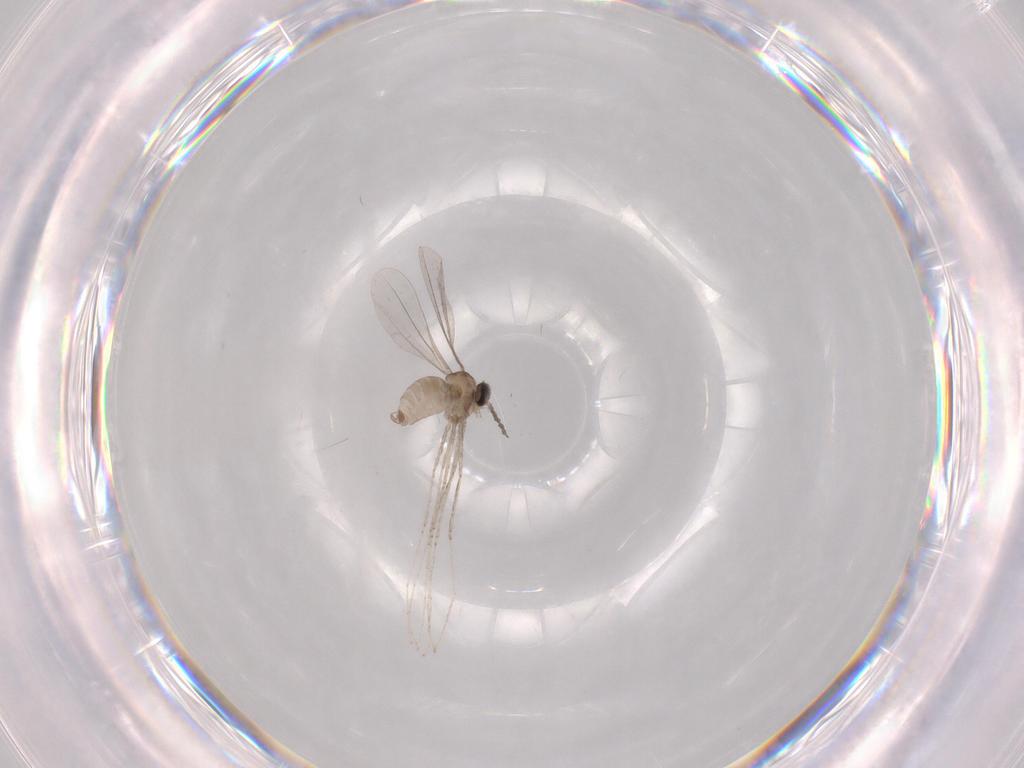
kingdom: Animalia
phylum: Arthropoda
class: Insecta
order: Diptera
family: Cecidomyiidae
